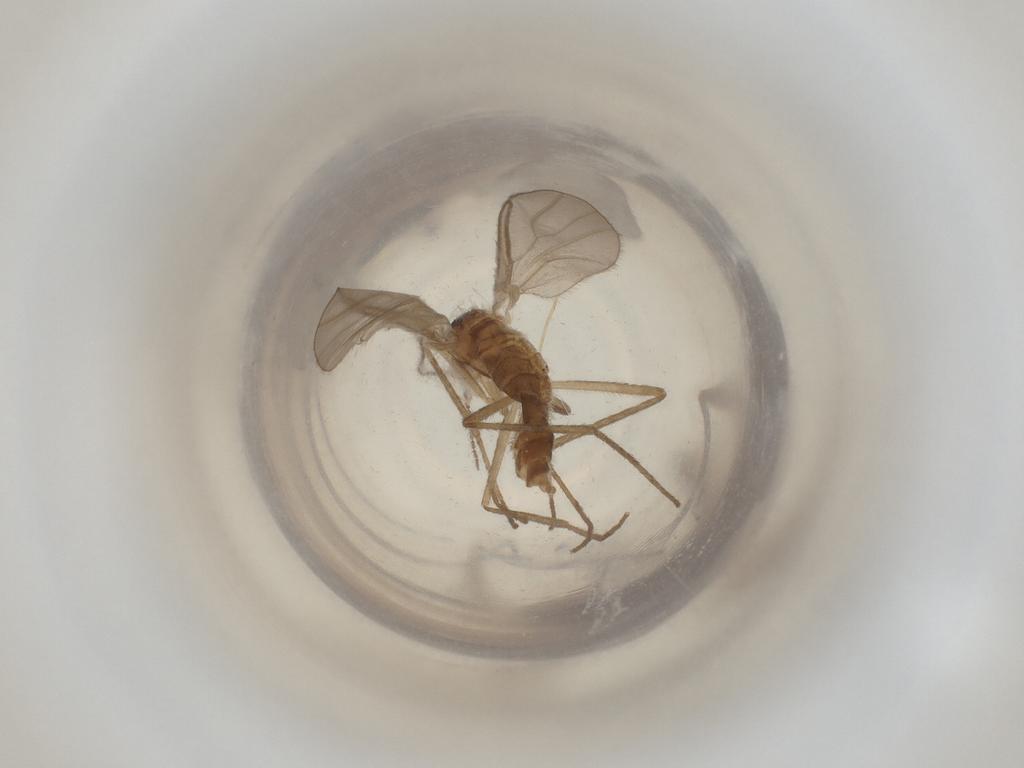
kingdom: Animalia
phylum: Arthropoda
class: Insecta
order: Diptera
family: Cecidomyiidae
